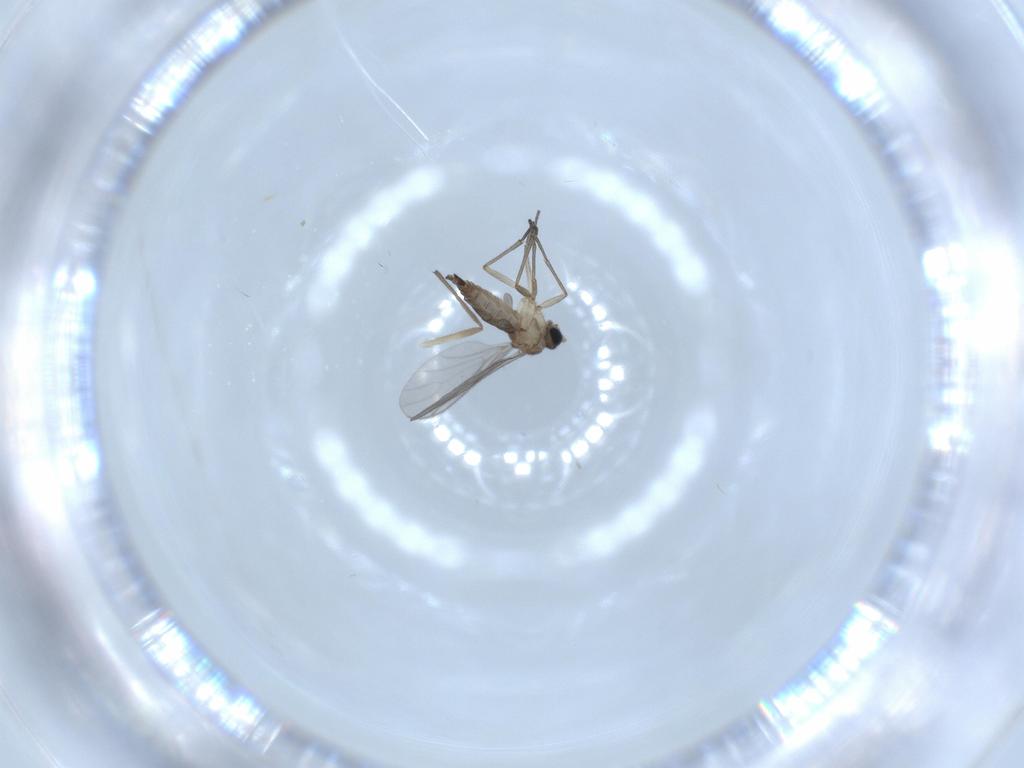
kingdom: Animalia
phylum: Arthropoda
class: Insecta
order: Diptera
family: Sciaridae
